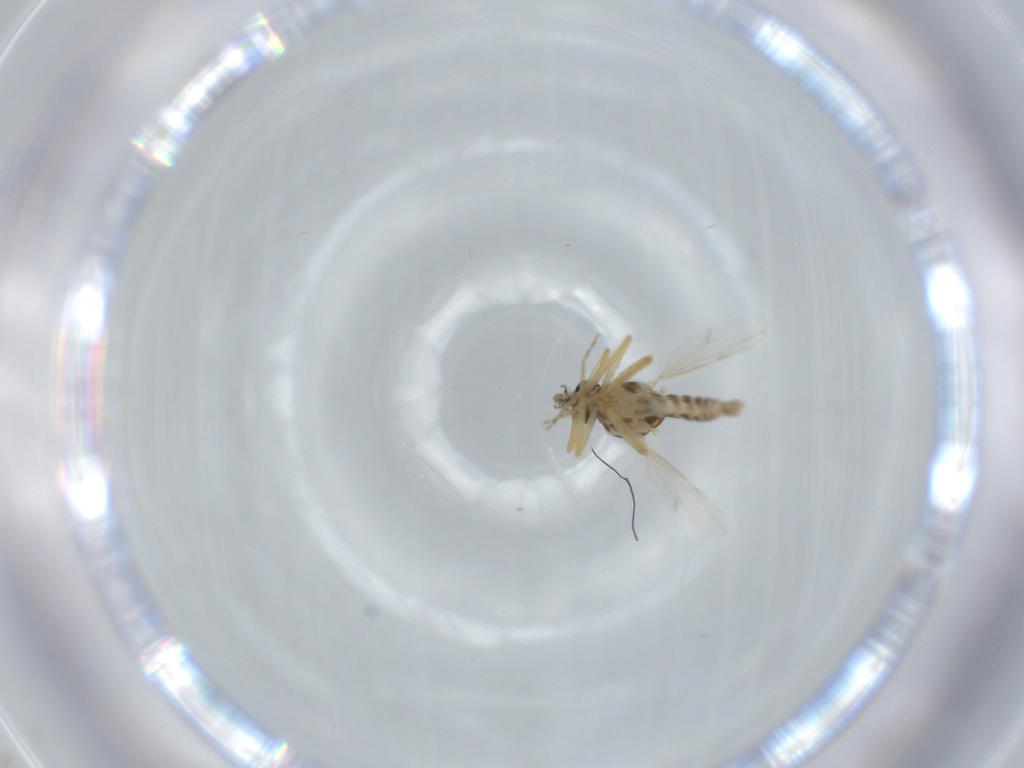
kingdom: Animalia
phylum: Arthropoda
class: Insecta
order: Diptera
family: Ceratopogonidae
